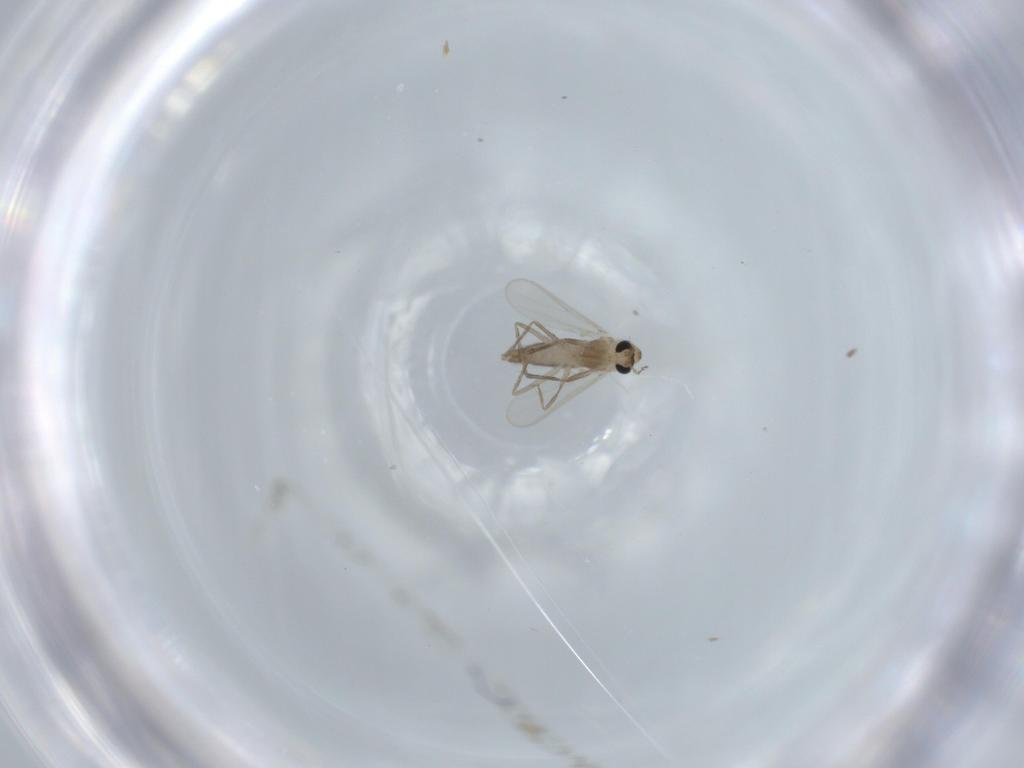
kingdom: Animalia
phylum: Arthropoda
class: Insecta
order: Diptera
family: Chironomidae
